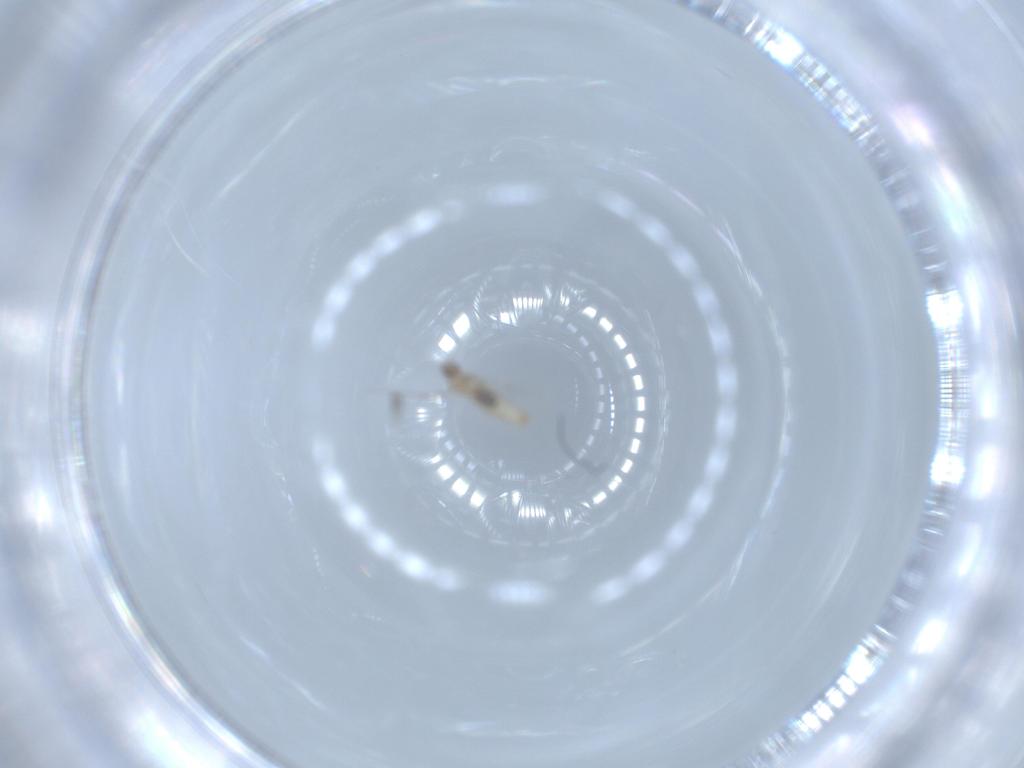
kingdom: Animalia
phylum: Arthropoda
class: Insecta
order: Diptera
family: Cecidomyiidae
